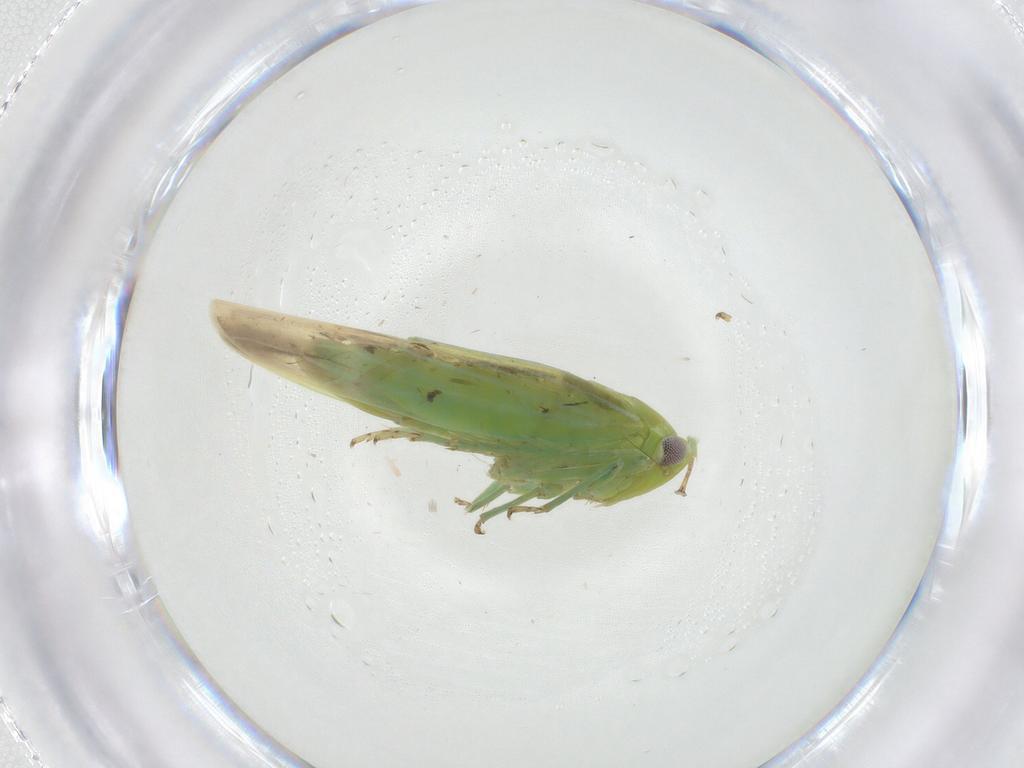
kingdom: Animalia
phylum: Arthropoda
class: Insecta
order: Hemiptera
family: Cicadellidae
